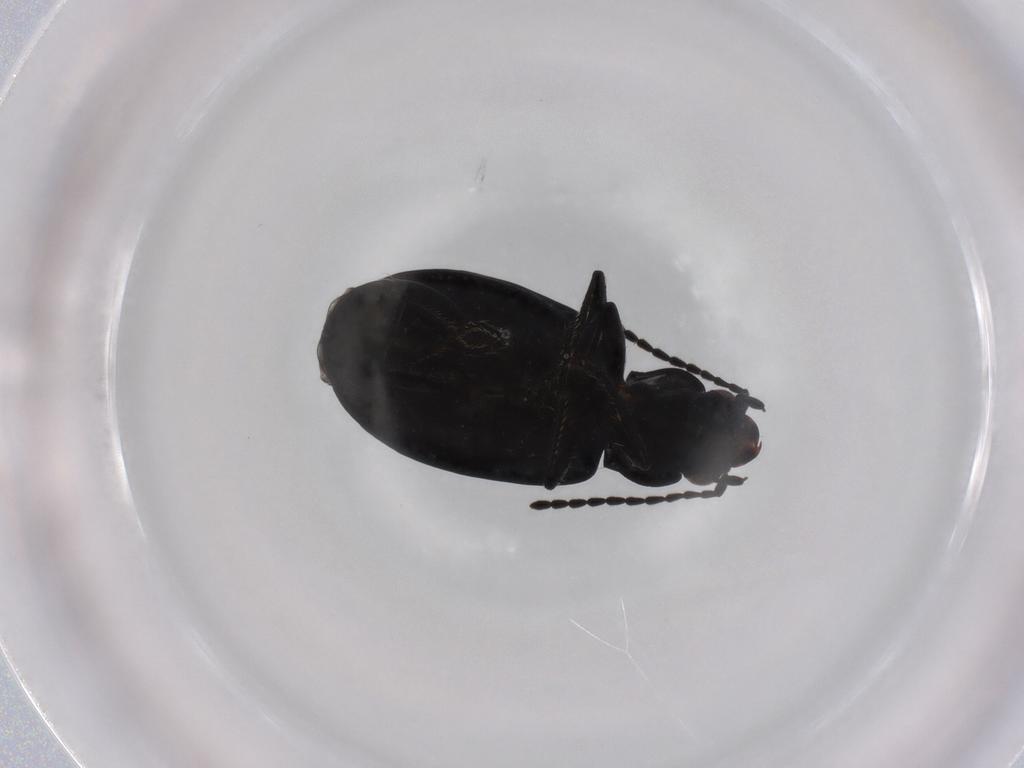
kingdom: Animalia
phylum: Arthropoda
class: Insecta
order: Coleoptera
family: Carabidae
